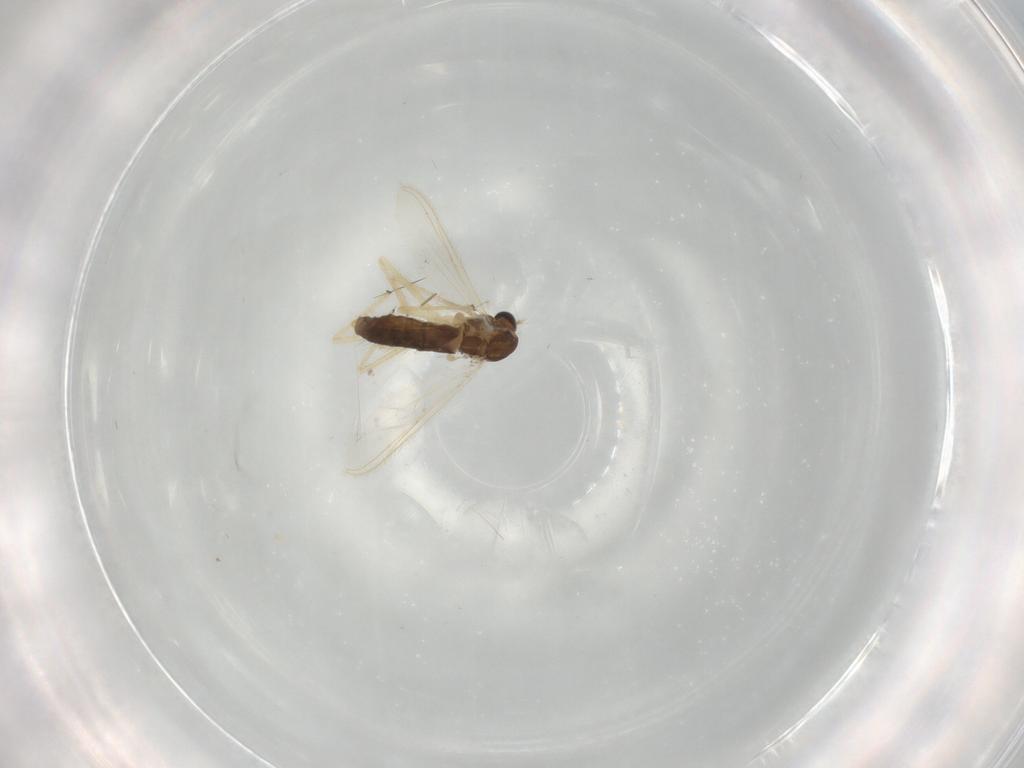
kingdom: Animalia
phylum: Arthropoda
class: Insecta
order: Diptera
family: Chironomidae
